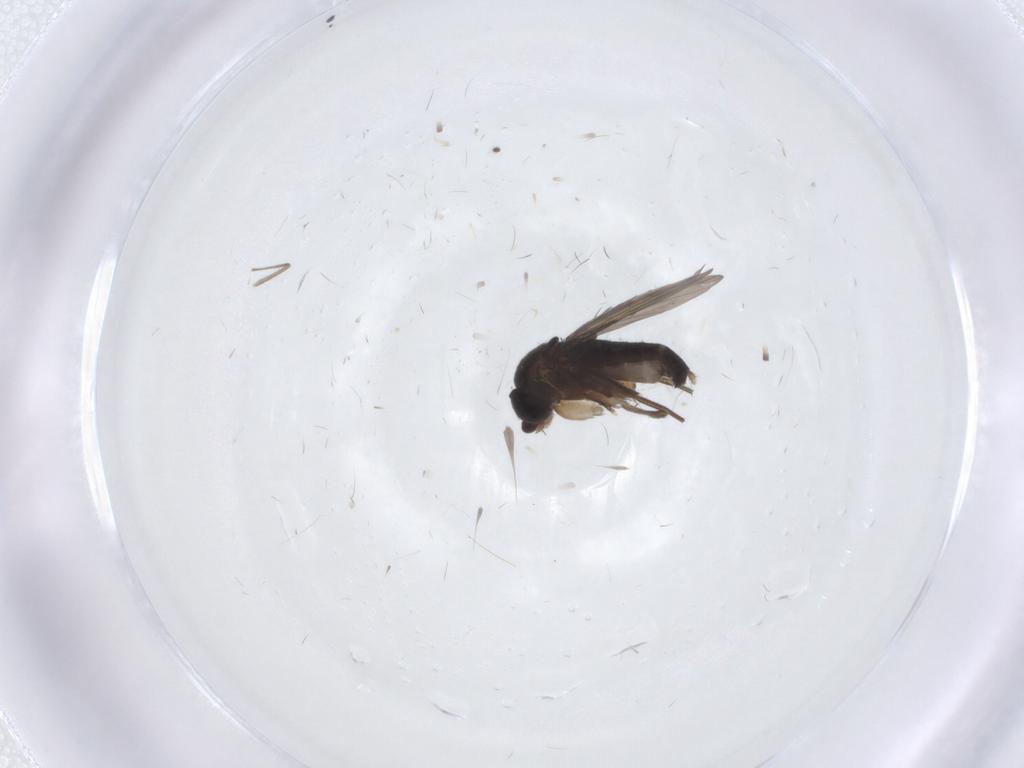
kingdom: Animalia
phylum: Arthropoda
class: Insecta
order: Diptera
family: Phoridae
